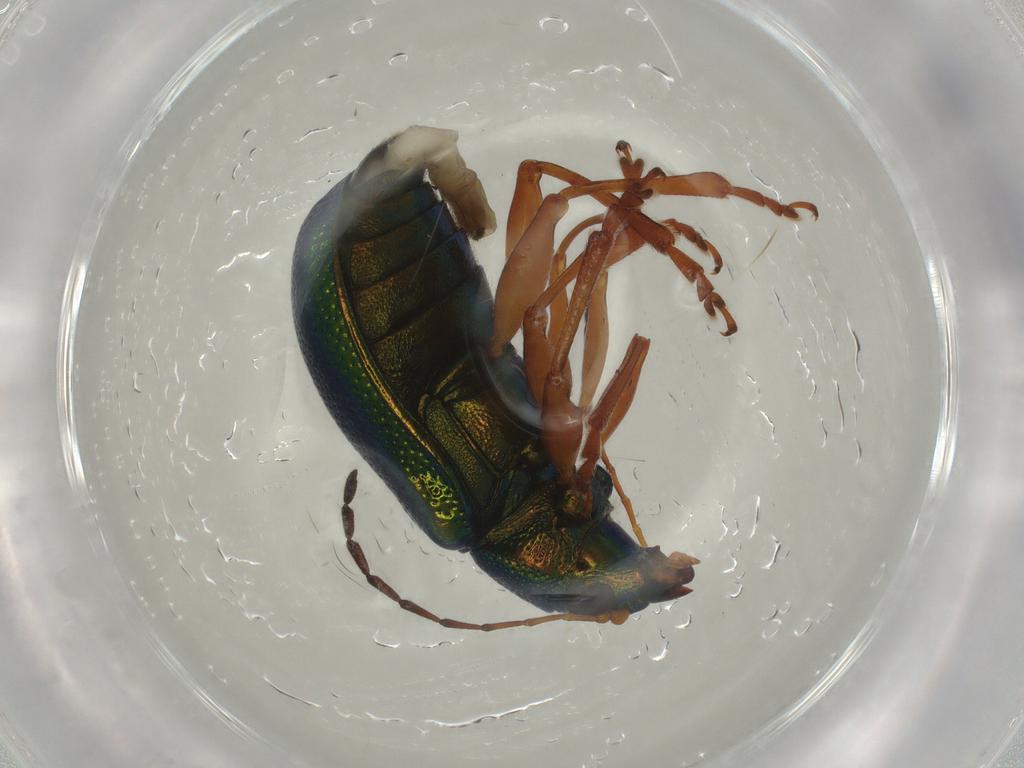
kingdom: Animalia
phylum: Arthropoda
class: Insecta
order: Coleoptera
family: Chrysomelidae
